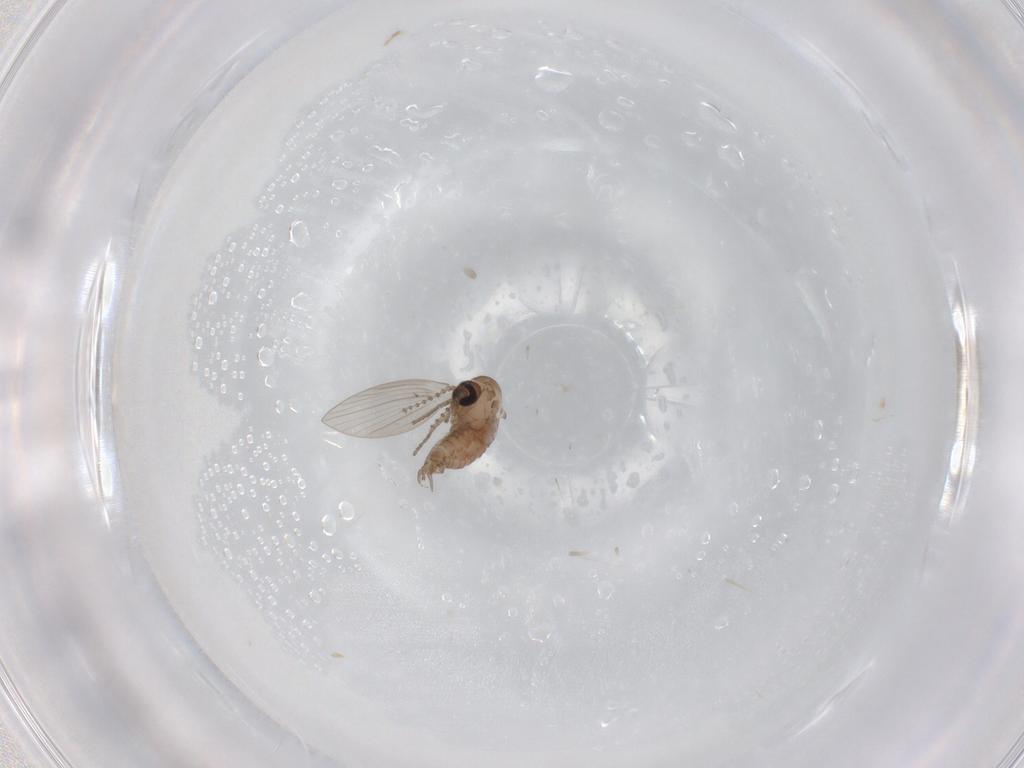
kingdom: Animalia
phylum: Arthropoda
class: Insecta
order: Diptera
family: Psychodidae
